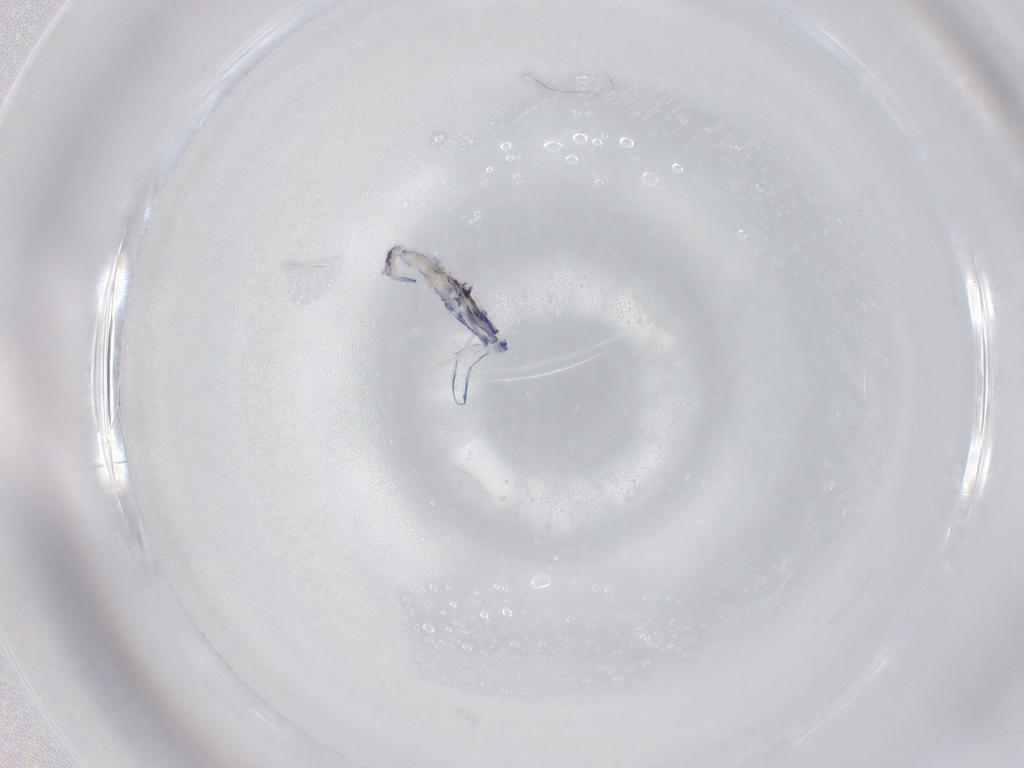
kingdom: Animalia
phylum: Arthropoda
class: Collembola
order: Entomobryomorpha
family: Entomobryidae
